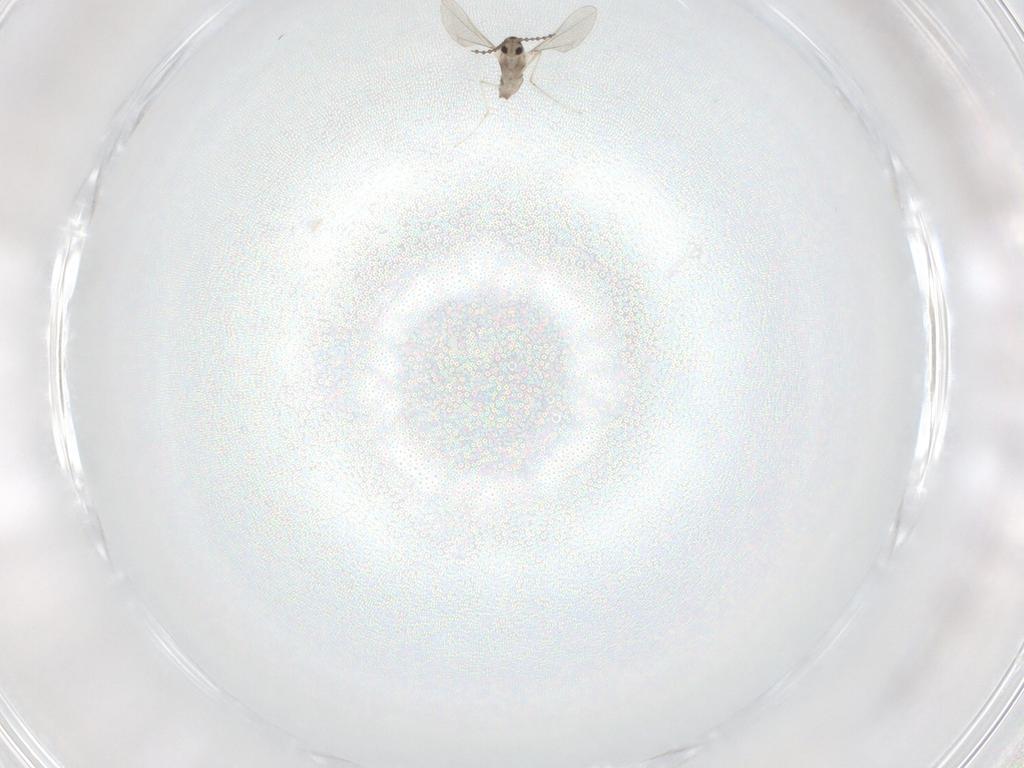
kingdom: Animalia
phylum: Arthropoda
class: Insecta
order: Diptera
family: Cecidomyiidae
